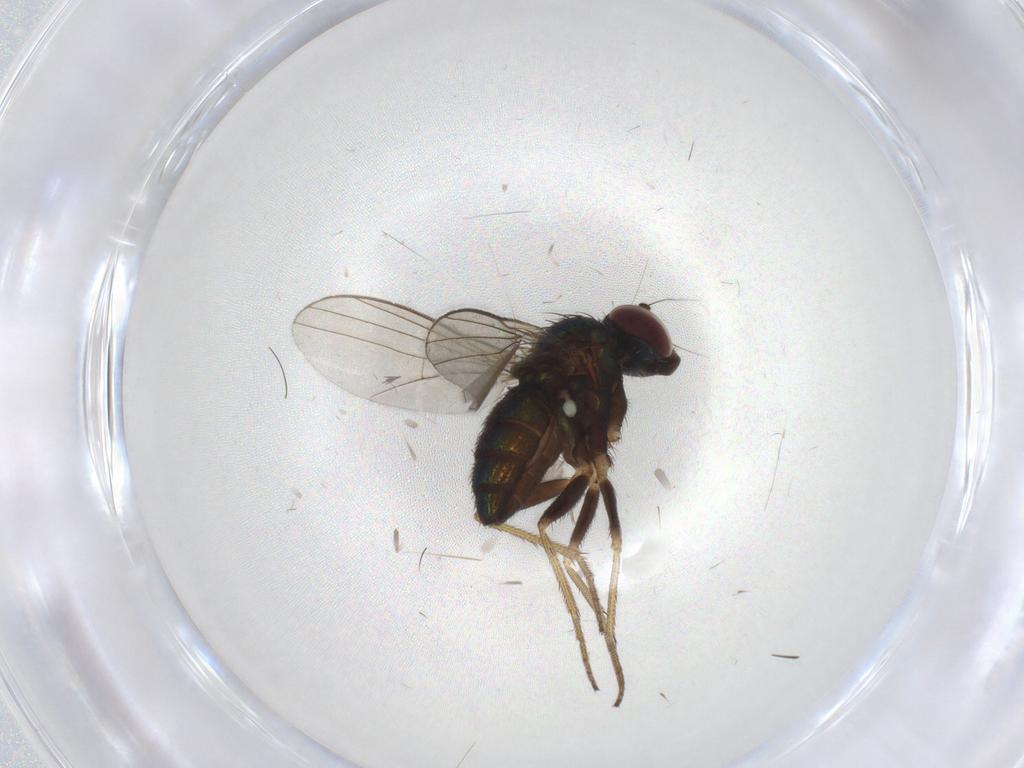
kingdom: Animalia
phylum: Arthropoda
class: Insecta
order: Diptera
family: Dolichopodidae
